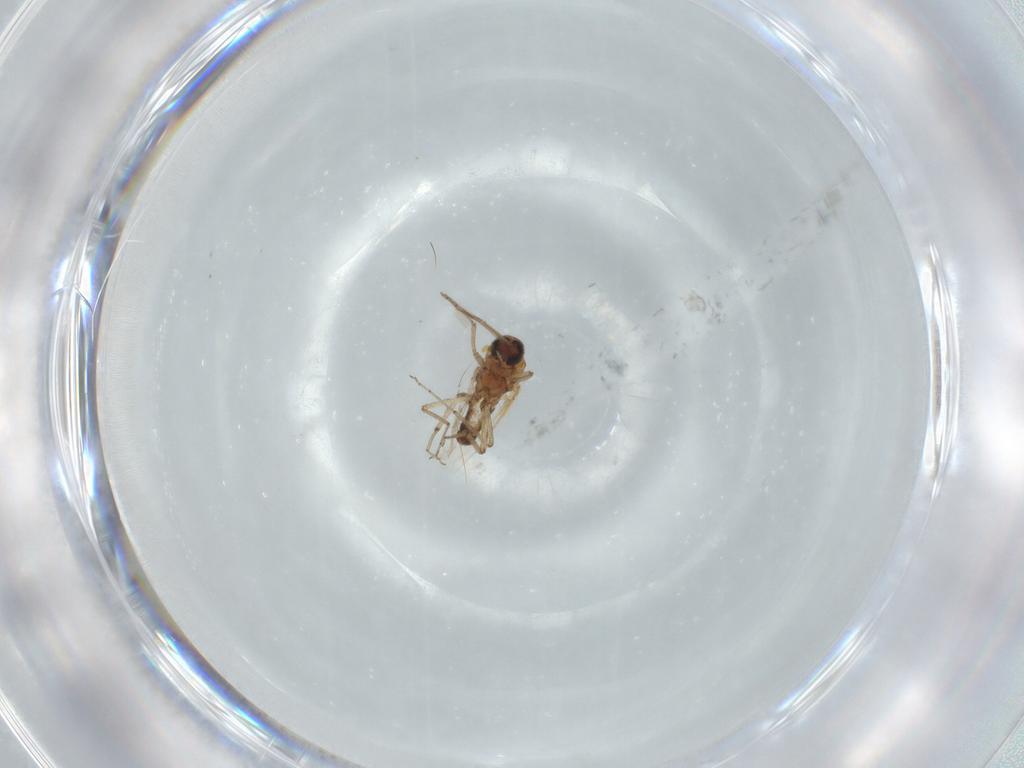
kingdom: Animalia
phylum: Arthropoda
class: Insecta
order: Diptera
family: Ceratopogonidae
